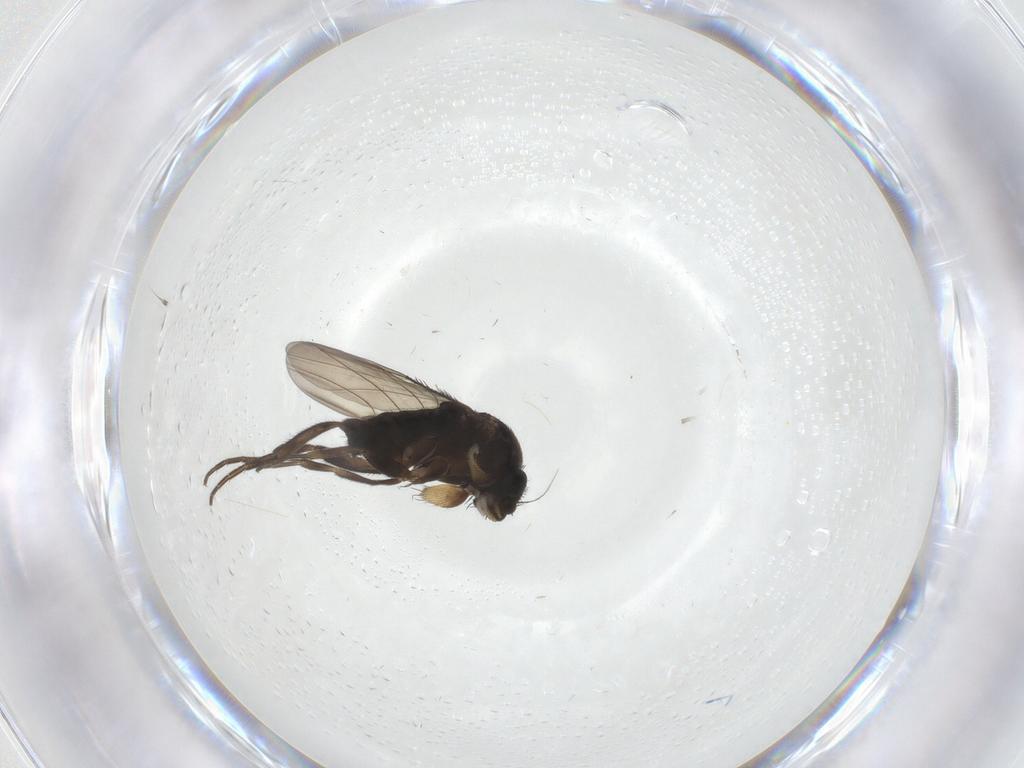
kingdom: Animalia
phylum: Arthropoda
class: Insecta
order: Diptera
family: Phoridae
